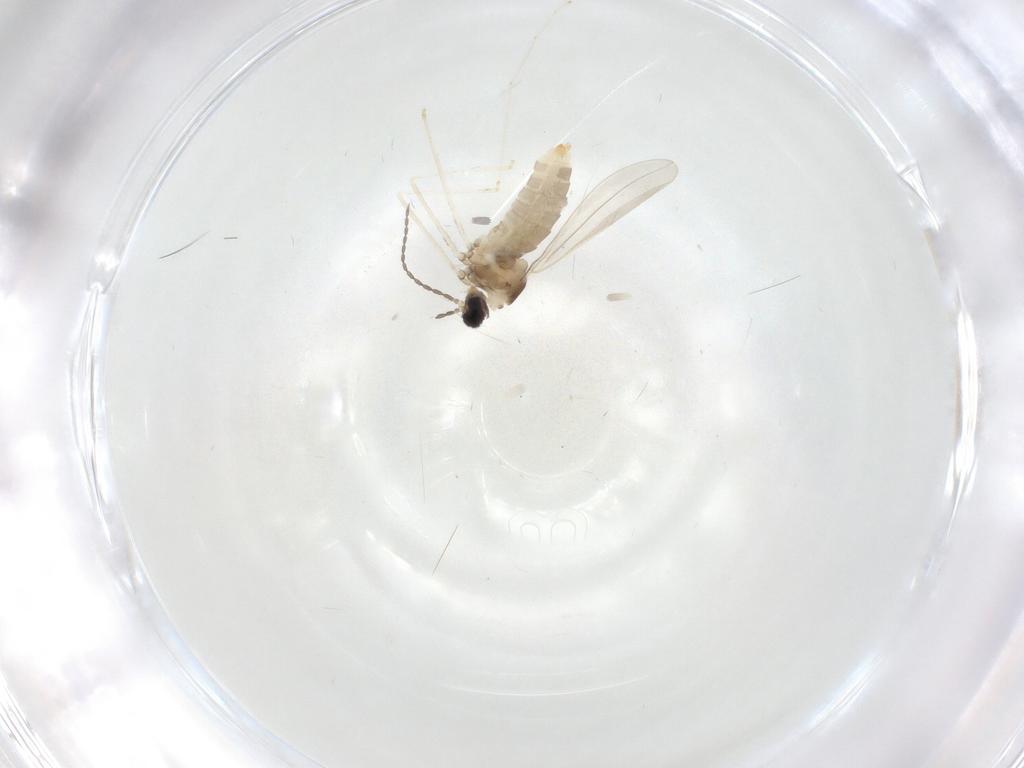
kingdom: Animalia
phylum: Arthropoda
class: Insecta
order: Diptera
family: Cecidomyiidae
